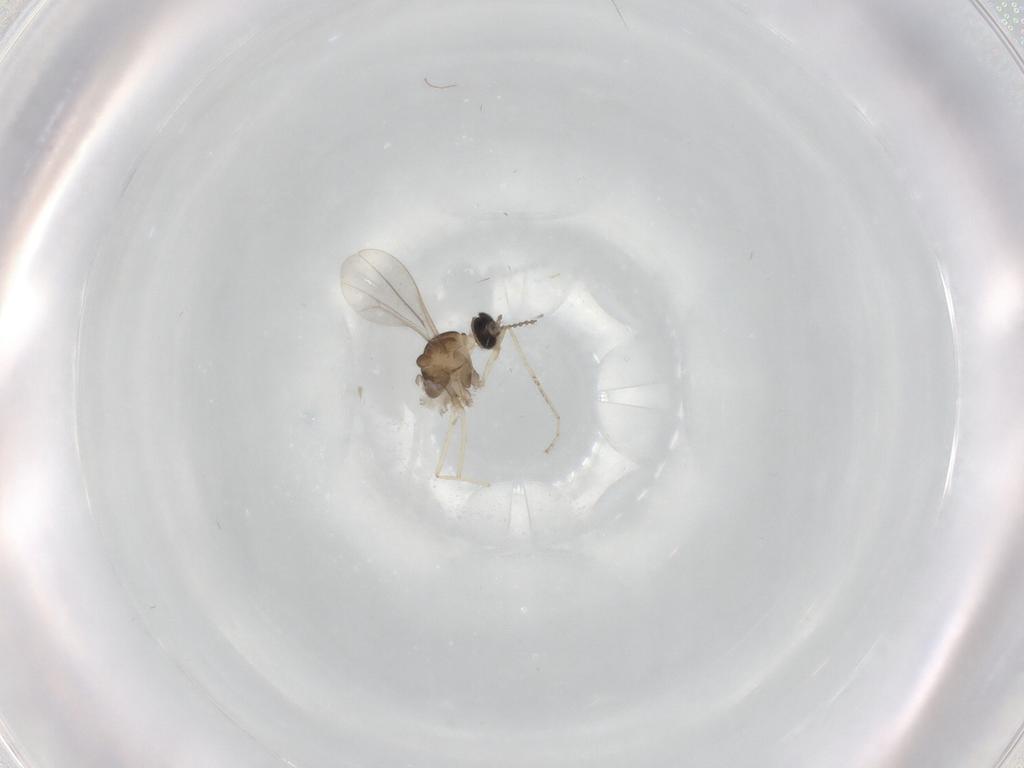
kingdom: Animalia
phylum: Arthropoda
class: Insecta
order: Diptera
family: Cecidomyiidae
